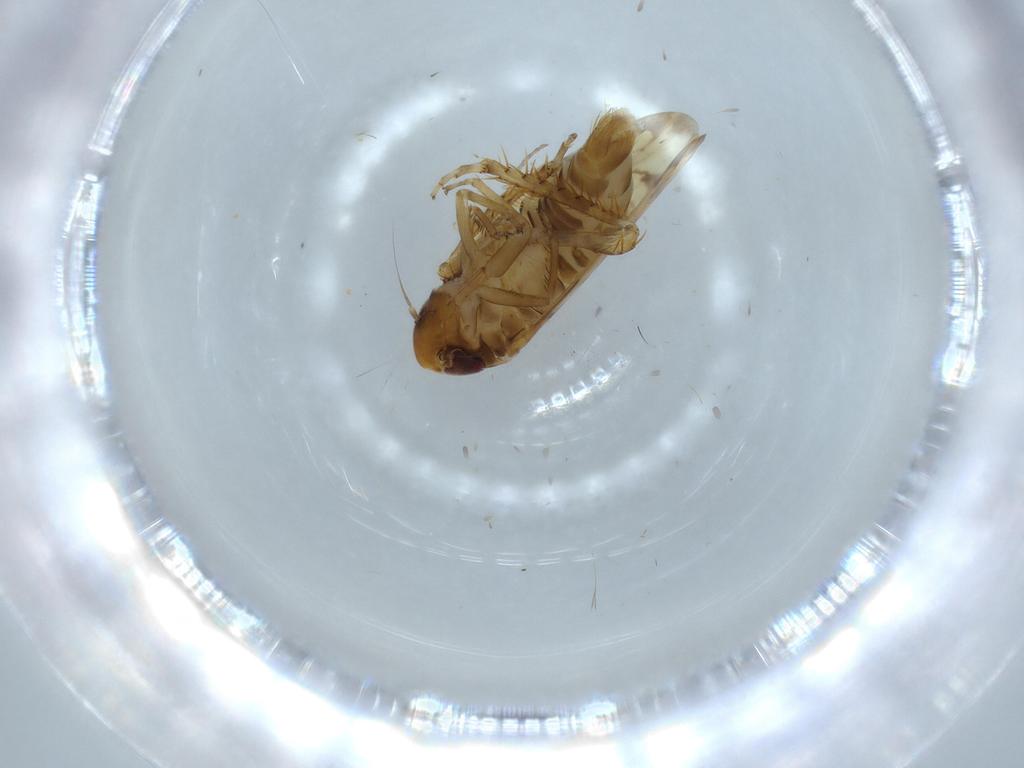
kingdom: Animalia
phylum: Arthropoda
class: Insecta
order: Hemiptera
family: Cicadellidae
